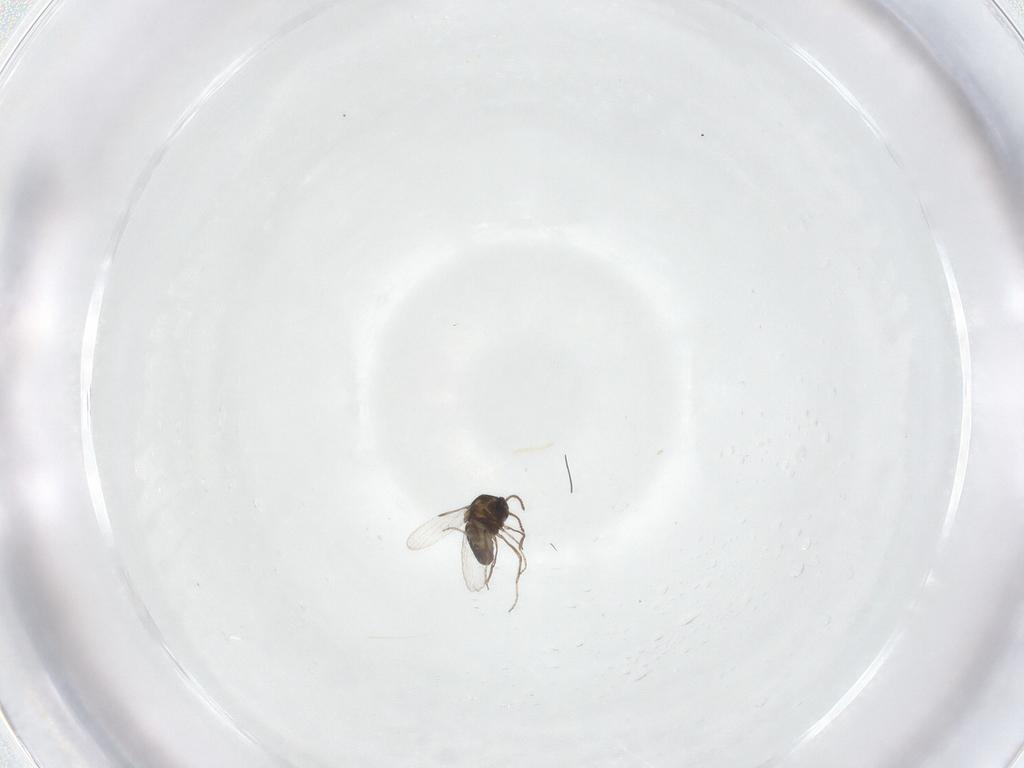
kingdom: Animalia
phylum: Arthropoda
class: Insecta
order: Diptera
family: Ceratopogonidae
